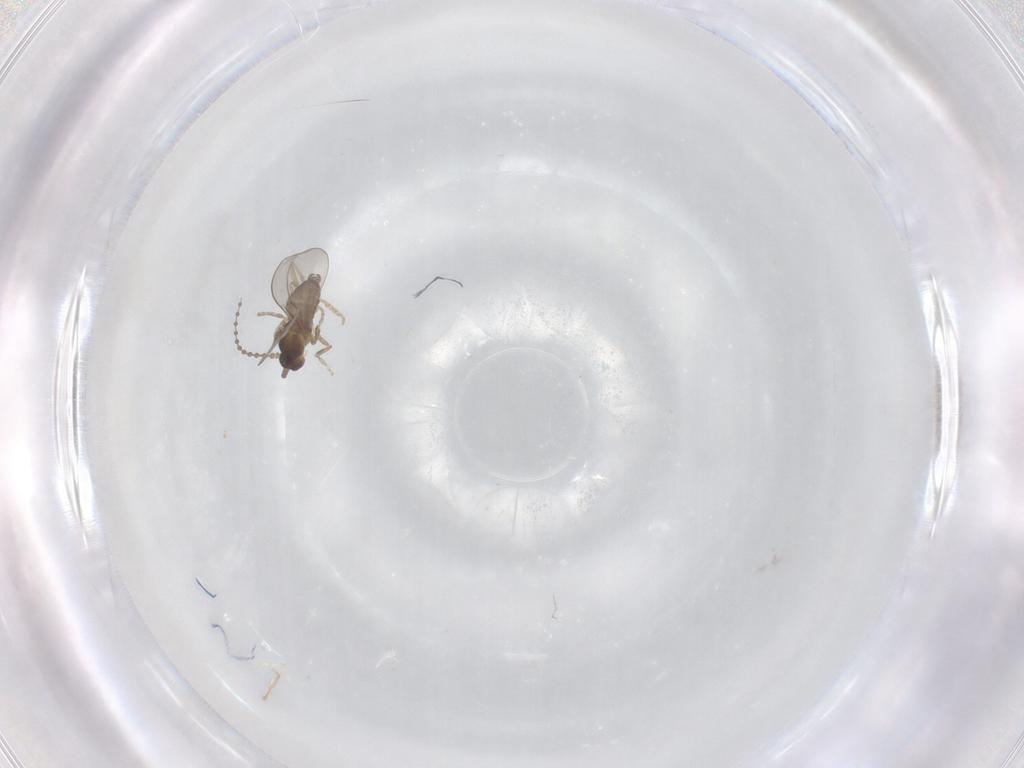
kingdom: Animalia
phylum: Arthropoda
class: Insecta
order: Diptera
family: Cecidomyiidae
